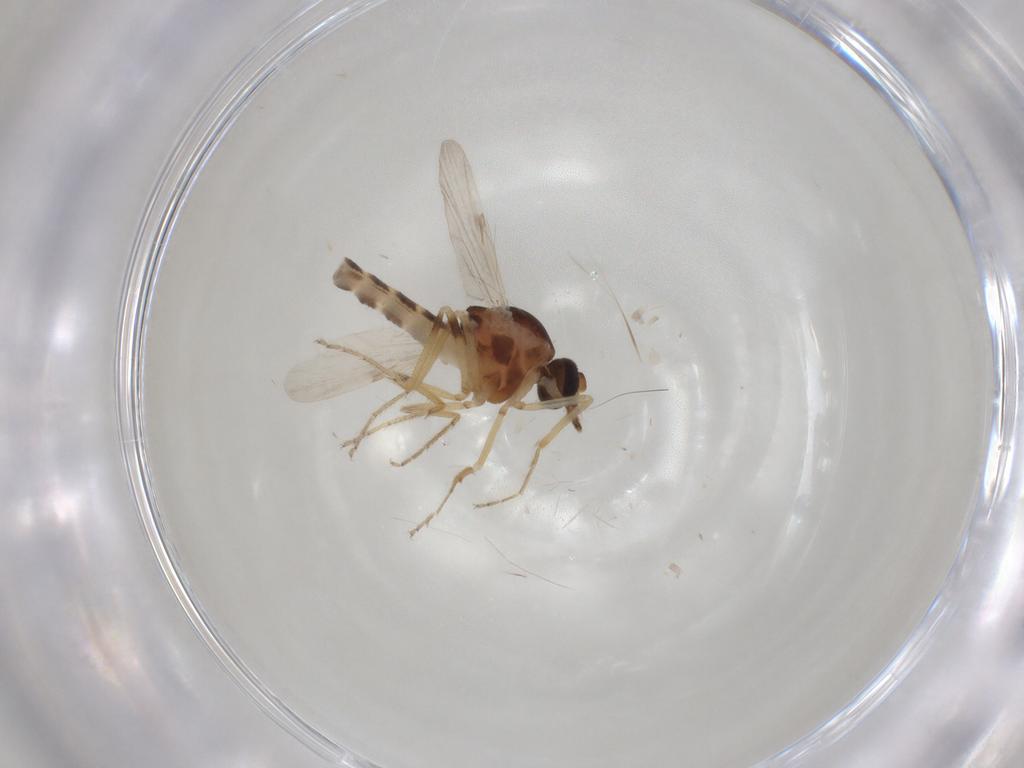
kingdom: Animalia
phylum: Arthropoda
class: Insecta
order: Diptera
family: Ceratopogonidae
